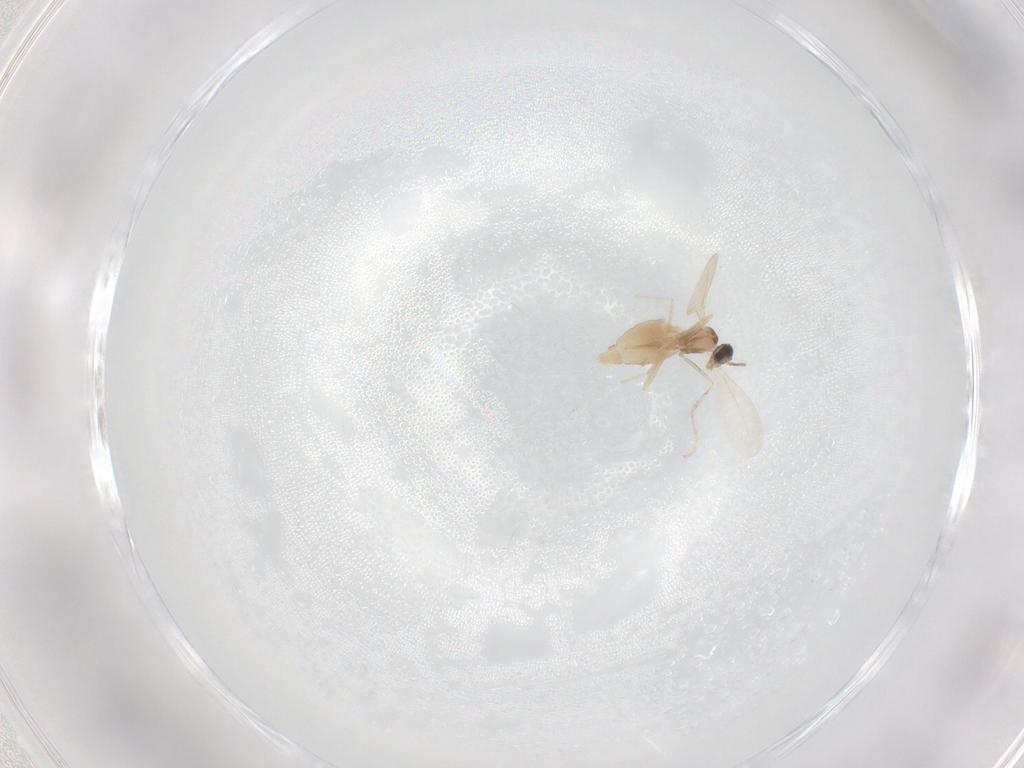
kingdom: Animalia
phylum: Arthropoda
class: Insecta
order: Diptera
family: Cecidomyiidae
